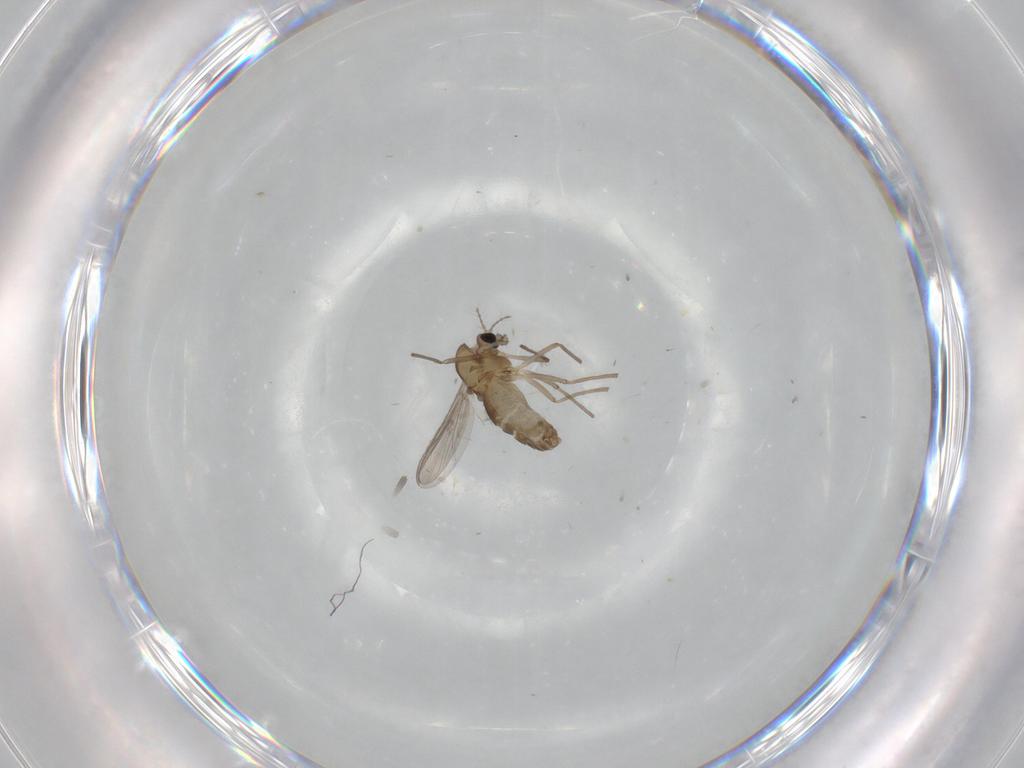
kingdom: Animalia
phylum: Arthropoda
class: Insecta
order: Diptera
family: Chironomidae
